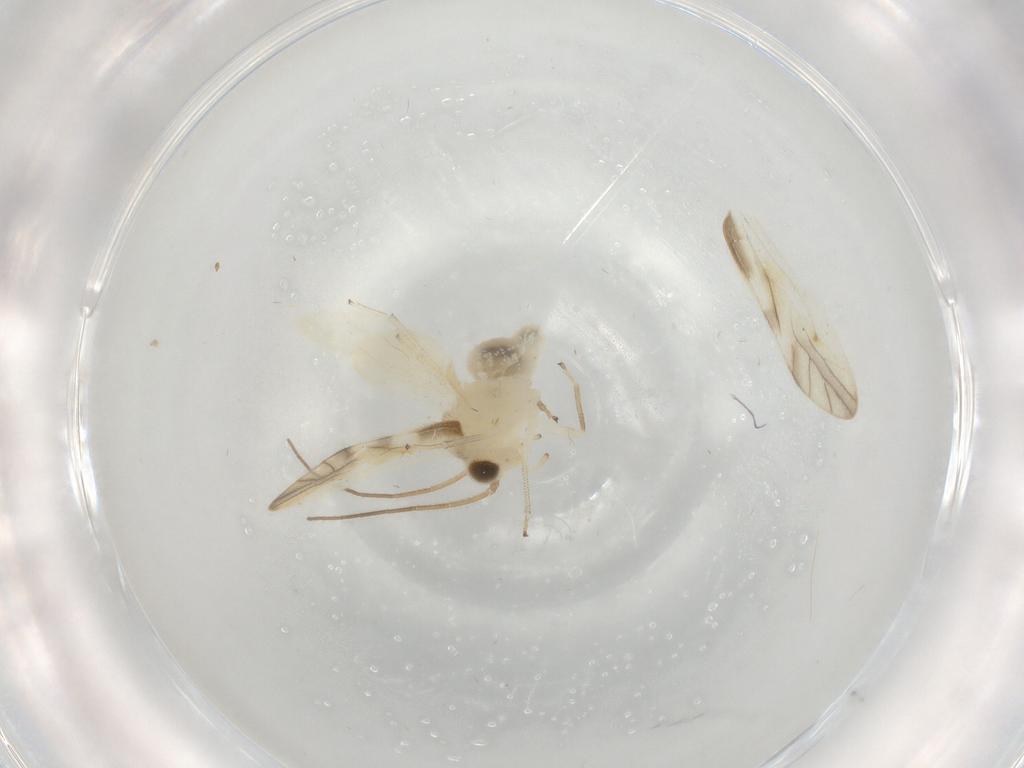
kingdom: Animalia
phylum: Arthropoda
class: Insecta
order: Psocodea
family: Caeciliusidae
